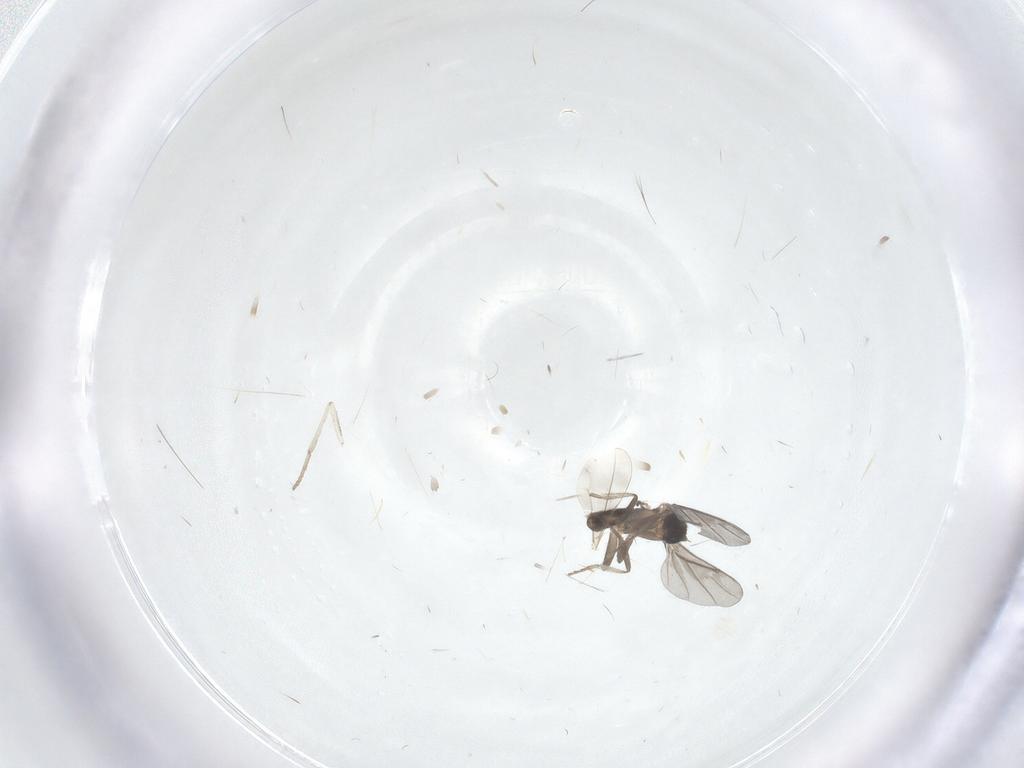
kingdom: Animalia
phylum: Arthropoda
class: Insecta
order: Diptera
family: Phoridae
